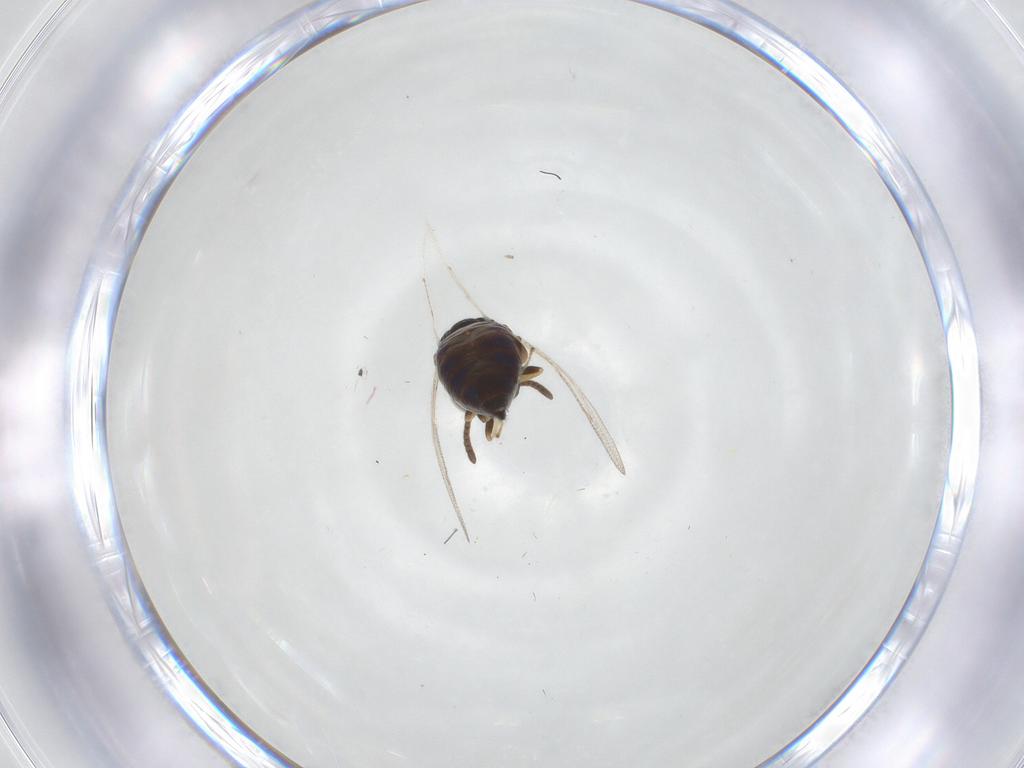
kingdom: Animalia
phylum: Arthropoda
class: Insecta
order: Hymenoptera
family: Pteromalidae
